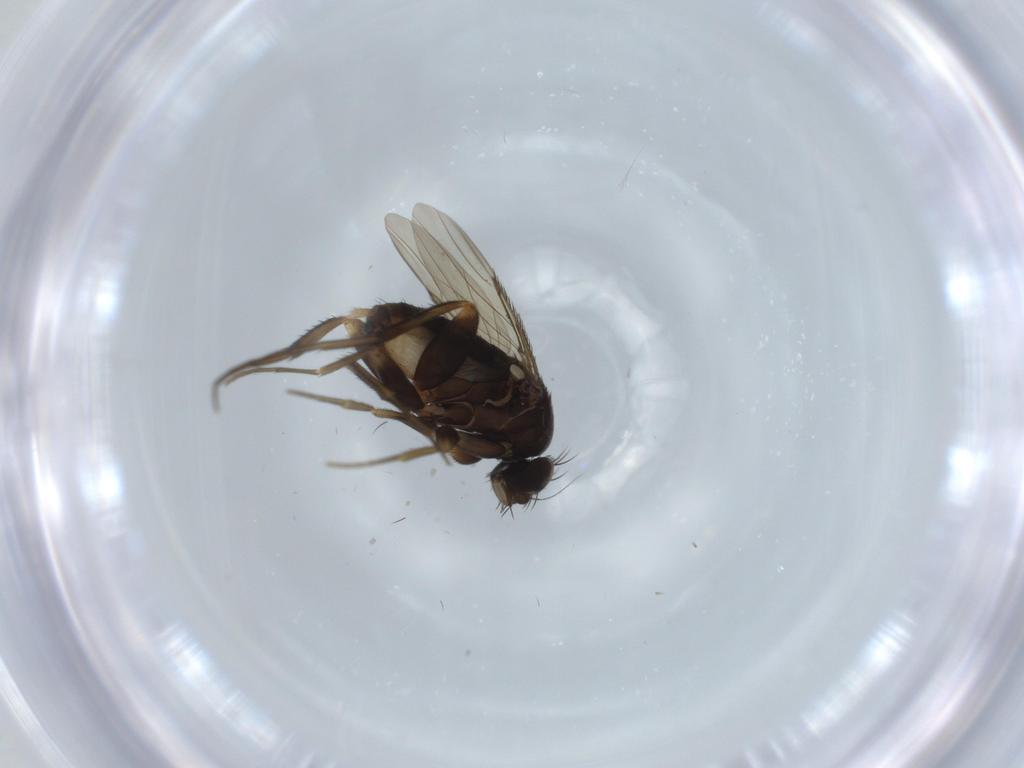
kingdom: Animalia
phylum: Arthropoda
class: Insecta
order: Diptera
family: Phoridae
